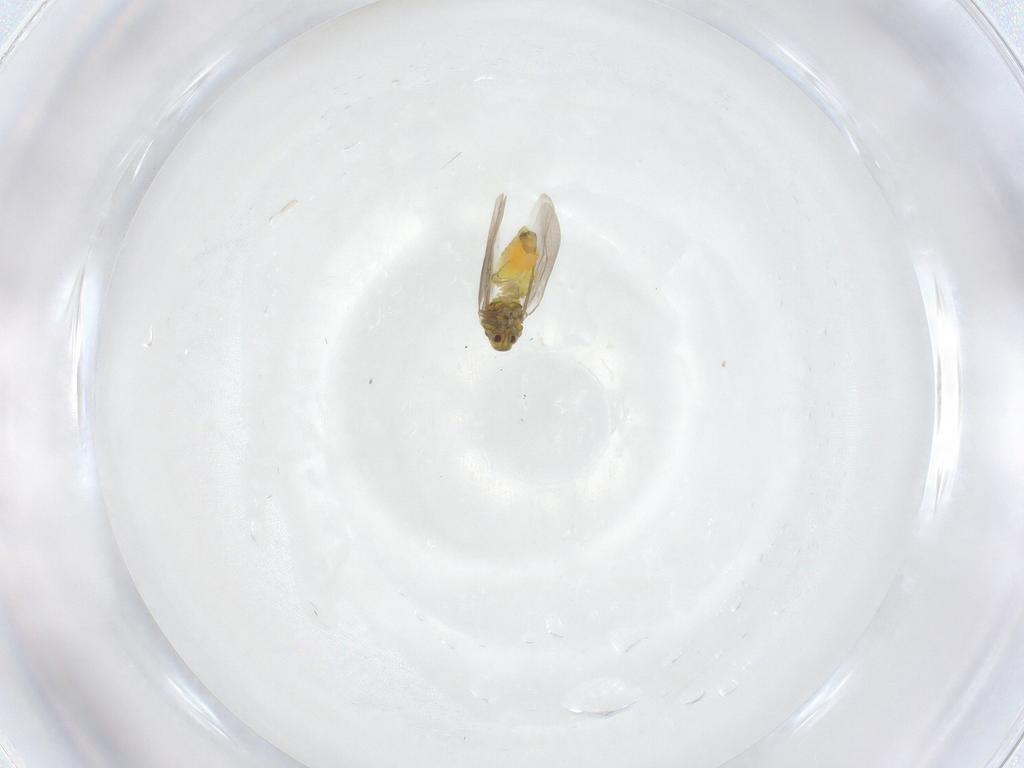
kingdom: Animalia
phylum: Arthropoda
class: Insecta
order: Hemiptera
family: Aleyrodidae
